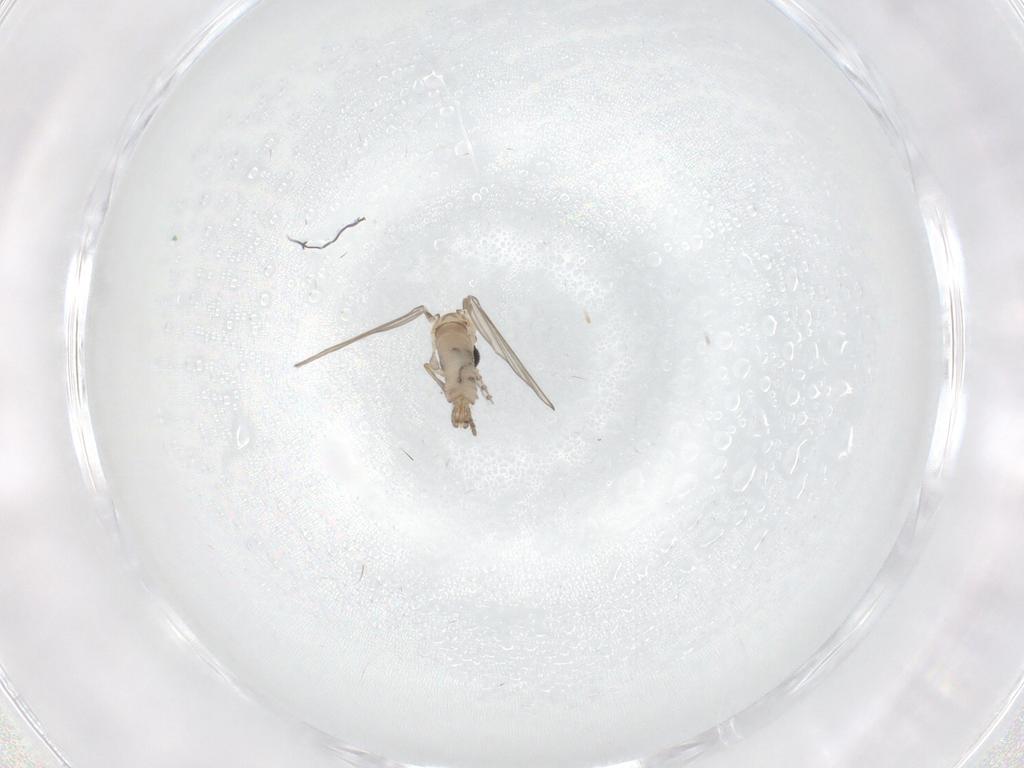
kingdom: Animalia
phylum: Arthropoda
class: Insecta
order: Diptera
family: Psychodidae
